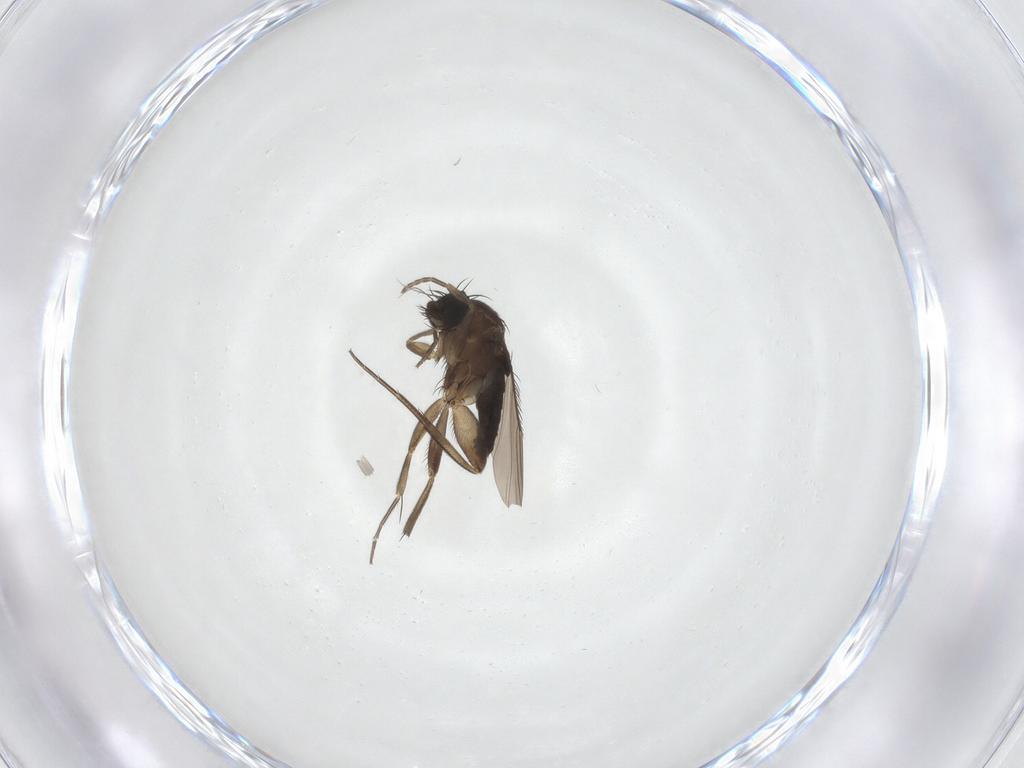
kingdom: Animalia
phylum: Arthropoda
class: Insecta
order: Diptera
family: Phoridae
